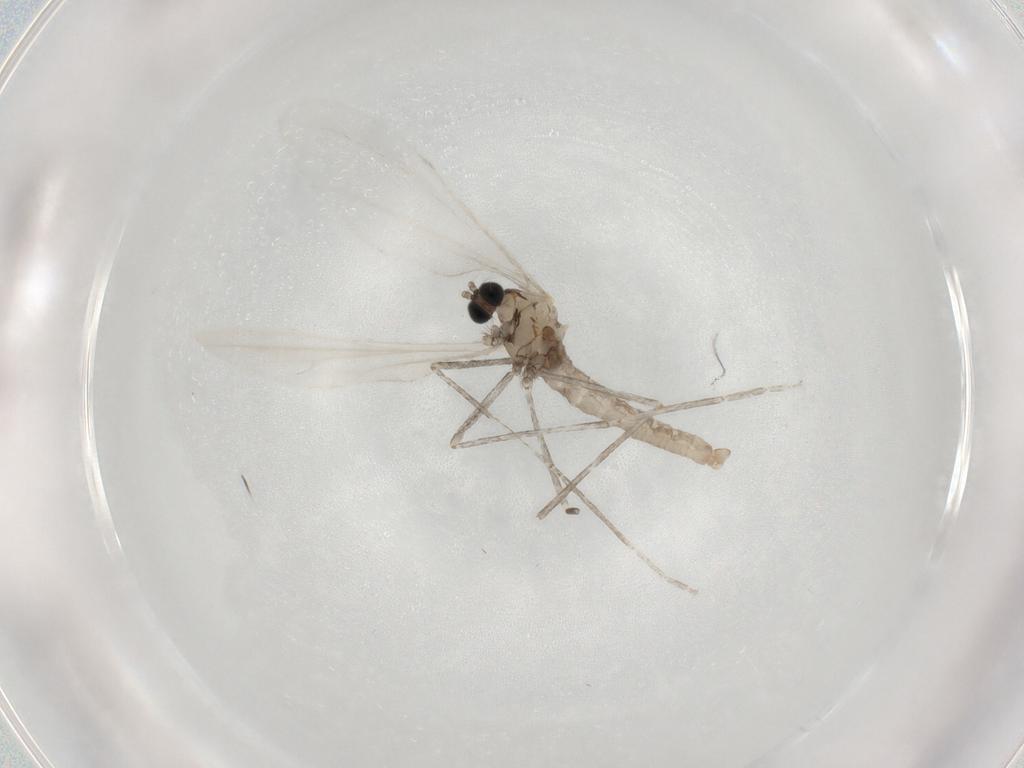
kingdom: Animalia
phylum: Arthropoda
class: Insecta
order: Diptera
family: Cecidomyiidae
